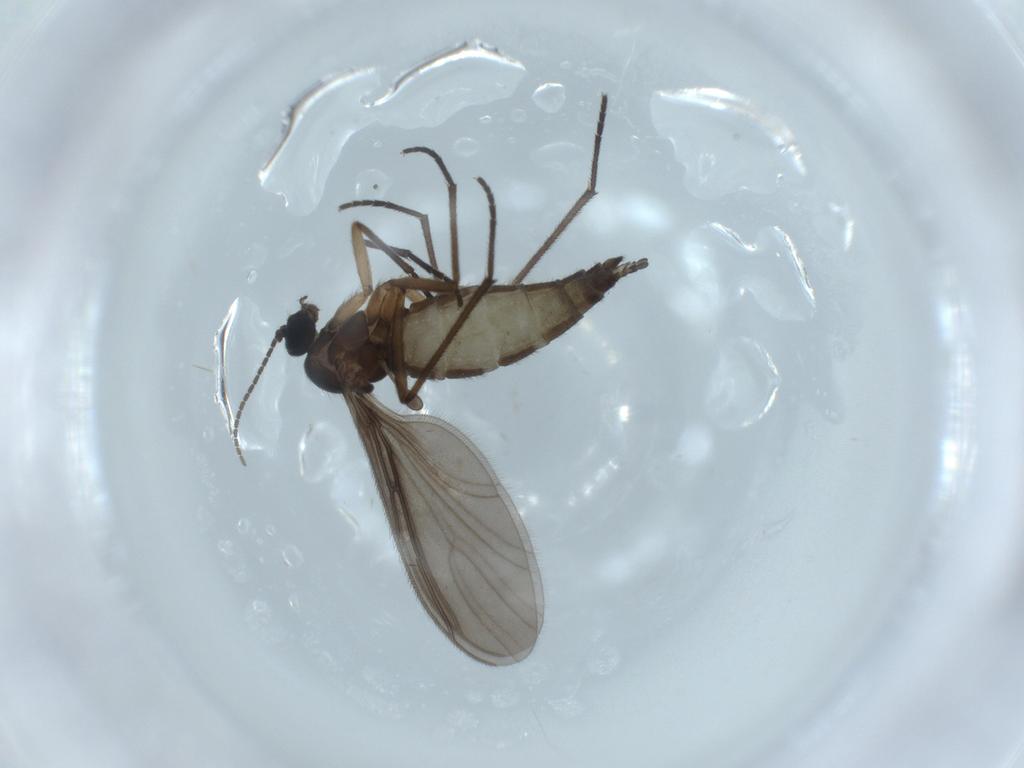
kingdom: Animalia
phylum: Arthropoda
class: Insecta
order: Diptera
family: Sciaridae
